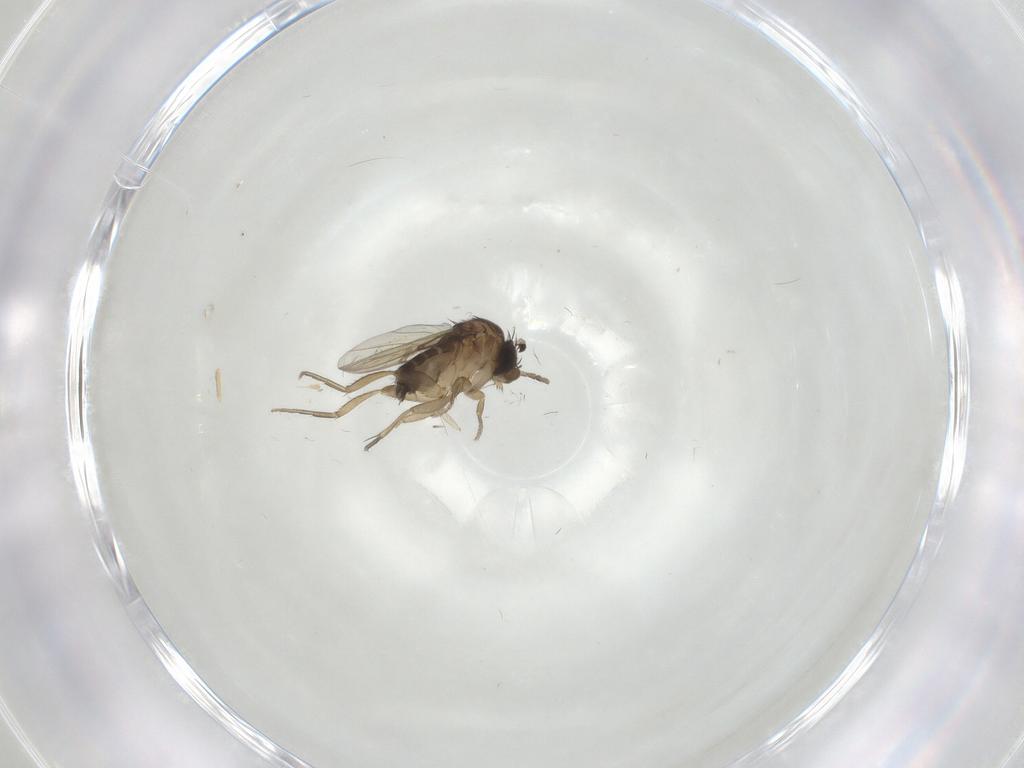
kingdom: Animalia
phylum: Arthropoda
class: Insecta
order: Diptera
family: Phoridae
